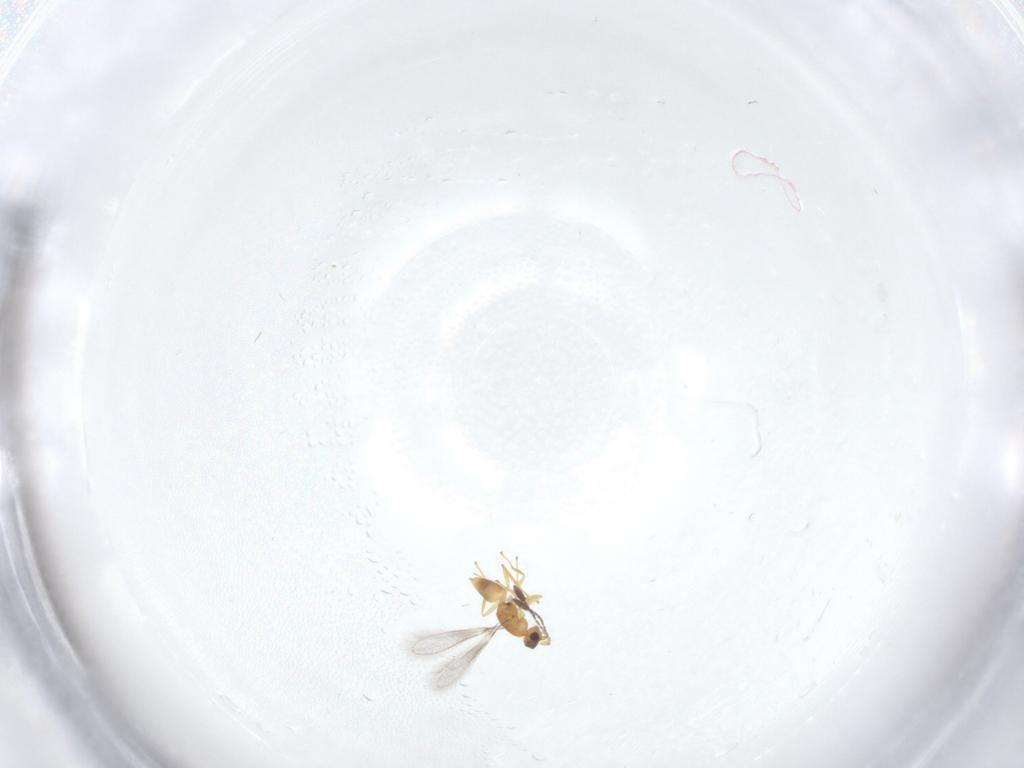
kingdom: Animalia
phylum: Arthropoda
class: Insecta
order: Hymenoptera
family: Mymaridae
